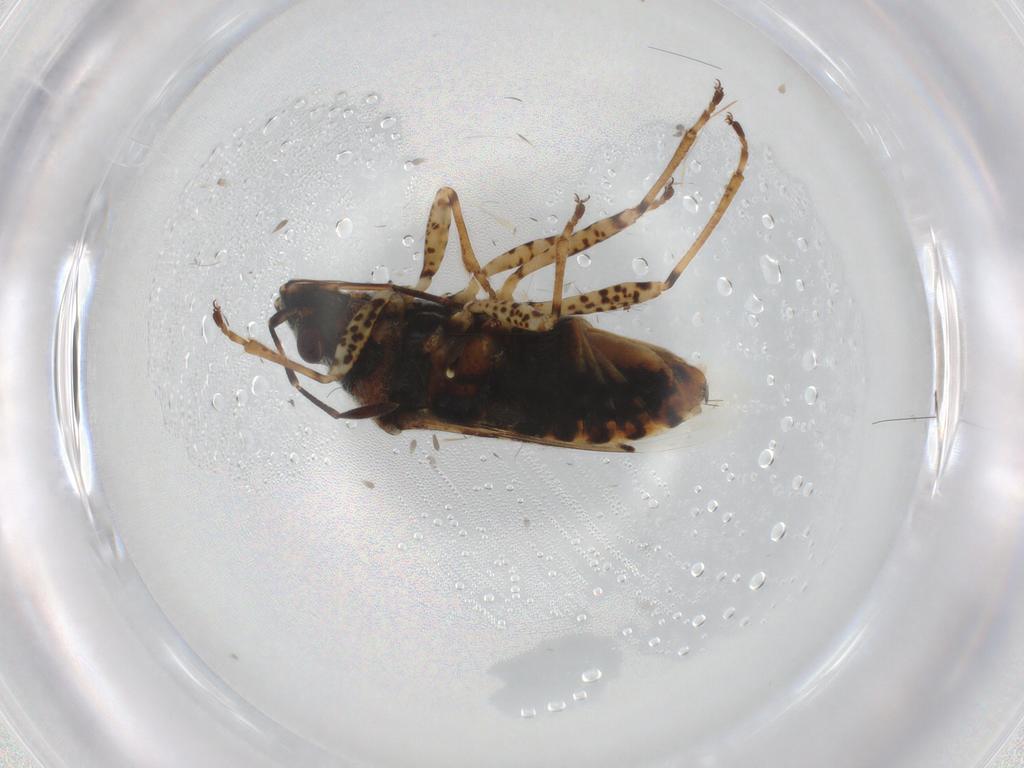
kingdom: Animalia
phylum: Arthropoda
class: Insecta
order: Hemiptera
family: Lygaeidae
